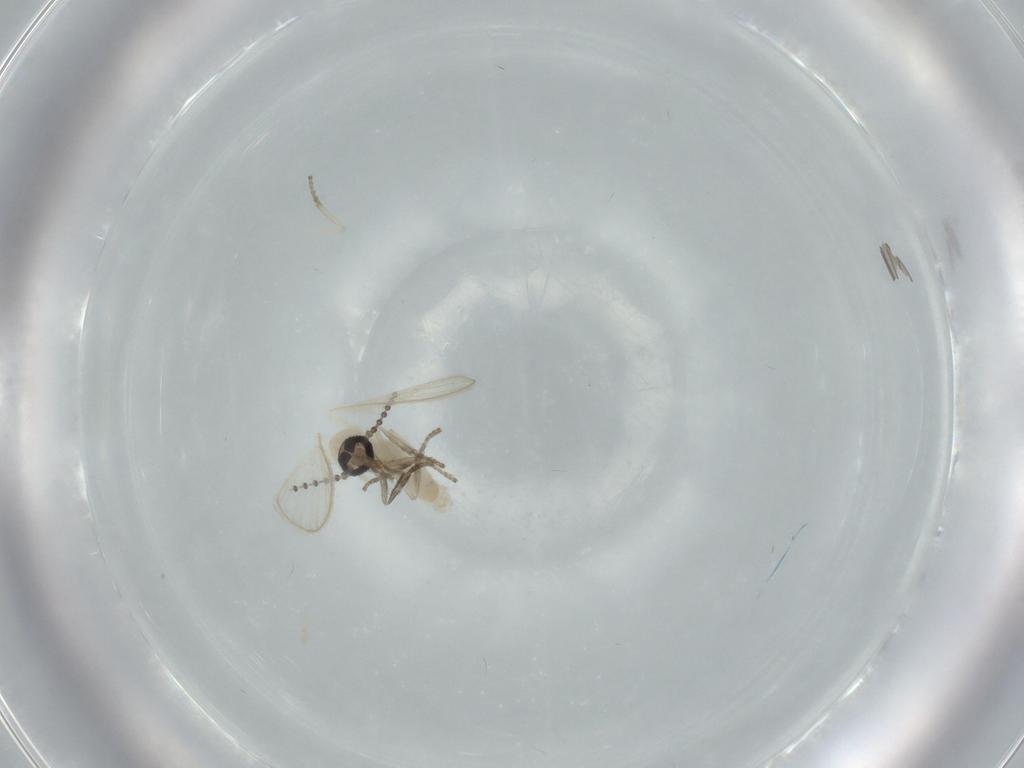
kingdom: Animalia
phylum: Arthropoda
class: Insecta
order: Diptera
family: Psychodidae
